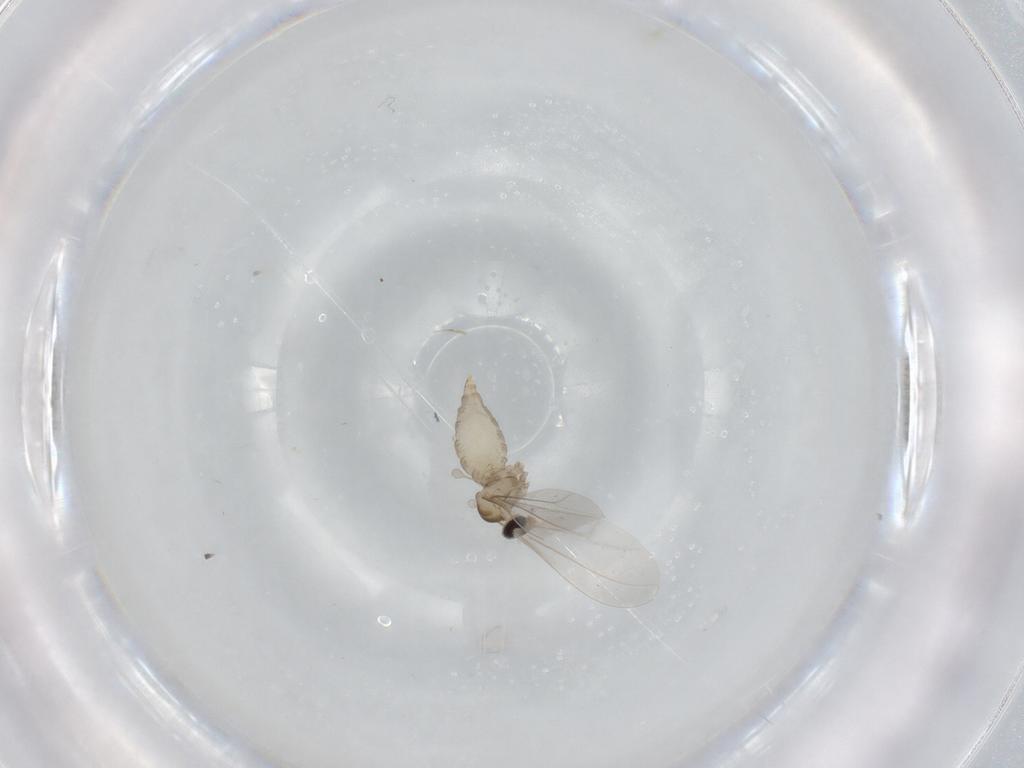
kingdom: Animalia
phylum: Arthropoda
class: Insecta
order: Diptera
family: Cecidomyiidae
